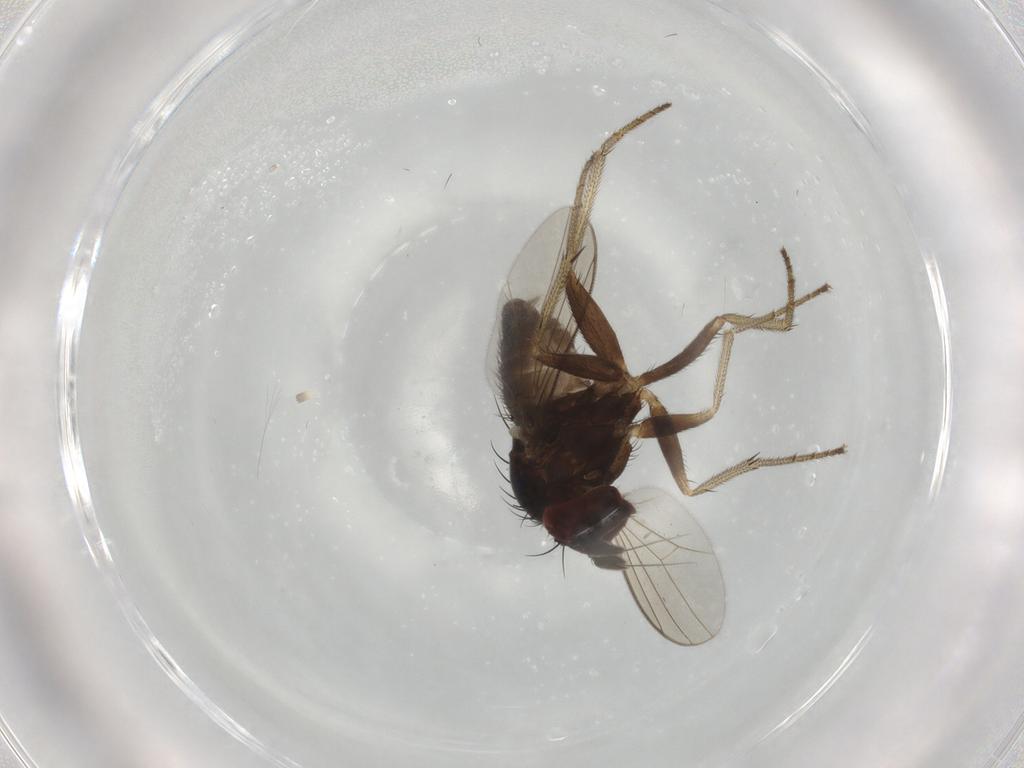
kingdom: Animalia
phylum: Arthropoda
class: Insecta
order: Diptera
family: Dolichopodidae
